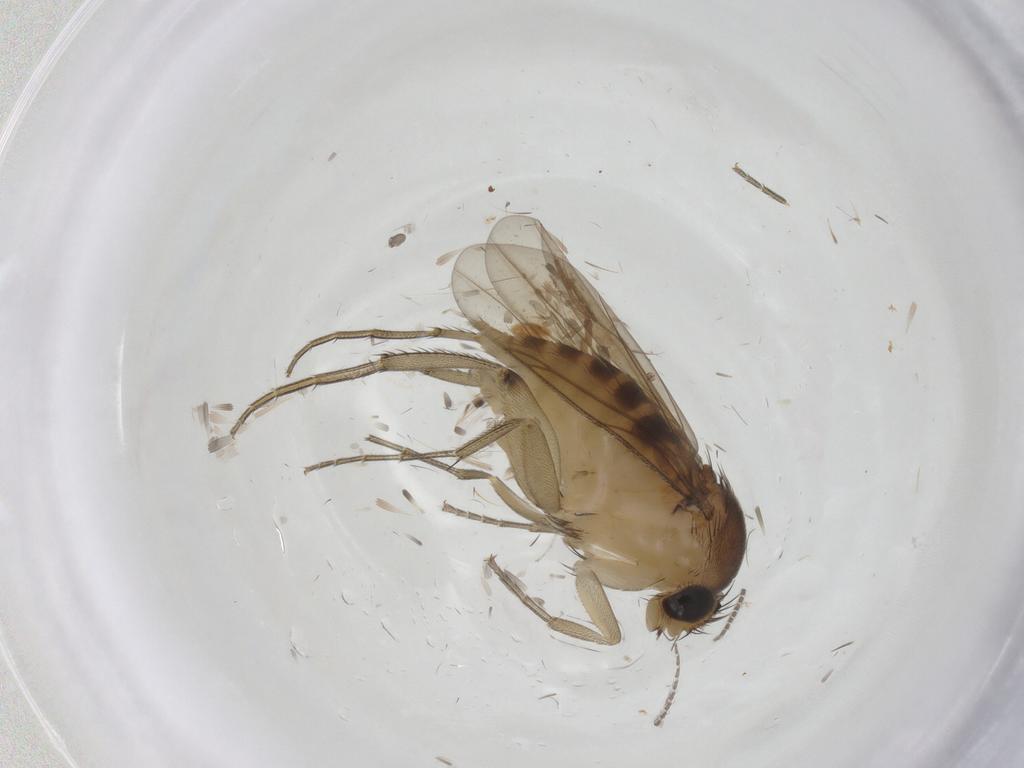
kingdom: Animalia
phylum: Arthropoda
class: Insecta
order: Diptera
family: Phoridae
